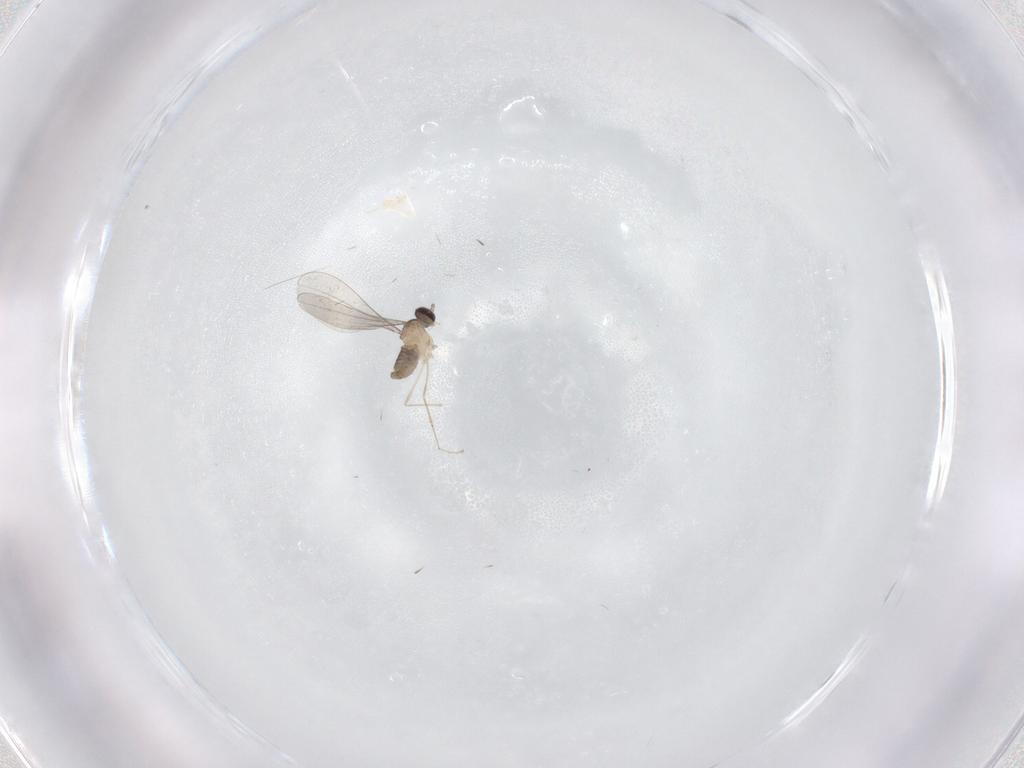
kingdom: Animalia
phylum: Arthropoda
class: Insecta
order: Diptera
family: Cecidomyiidae
